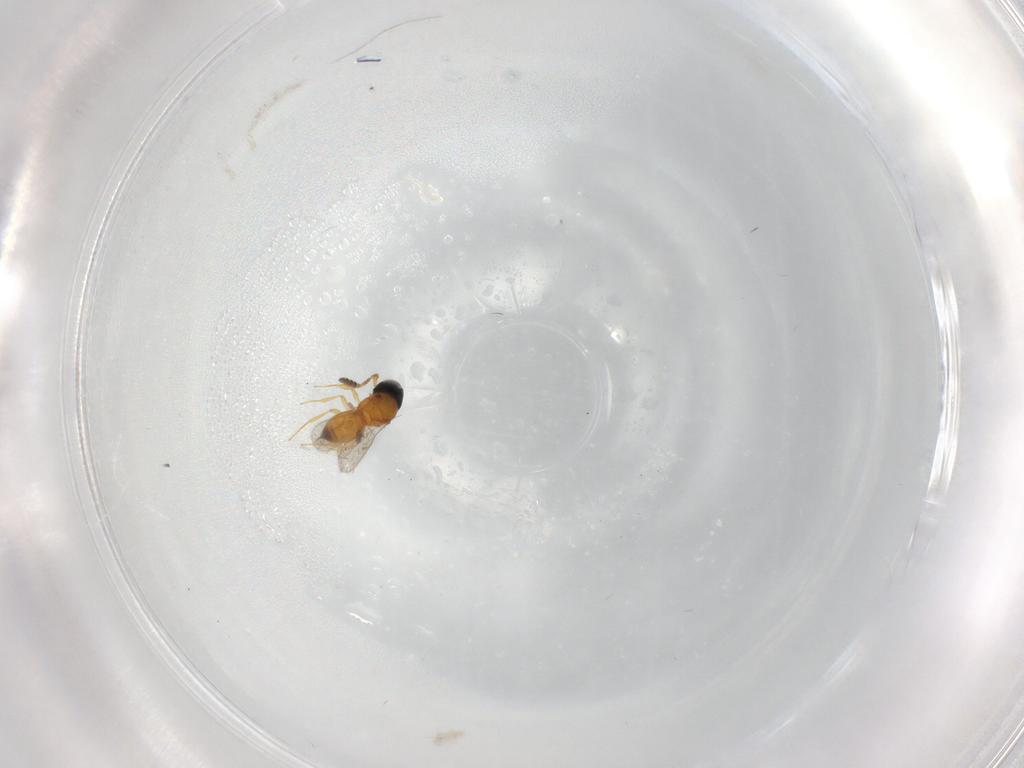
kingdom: Animalia
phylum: Arthropoda
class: Insecta
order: Hymenoptera
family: Scelionidae
